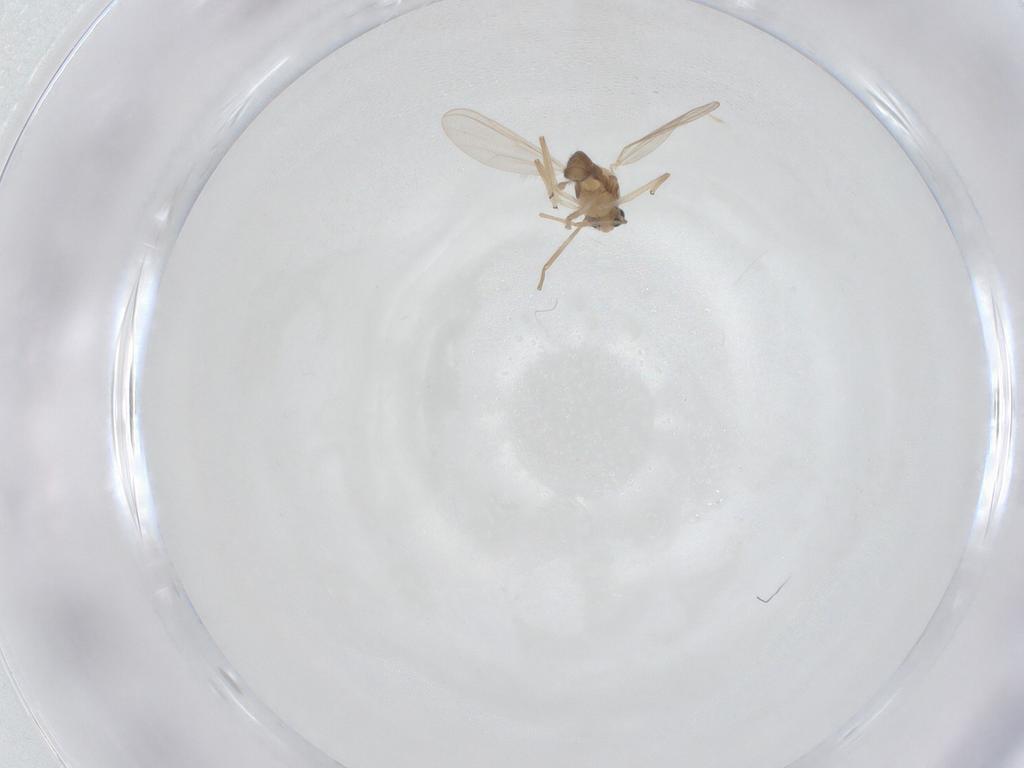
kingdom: Animalia
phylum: Arthropoda
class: Insecta
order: Diptera
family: Chironomidae
